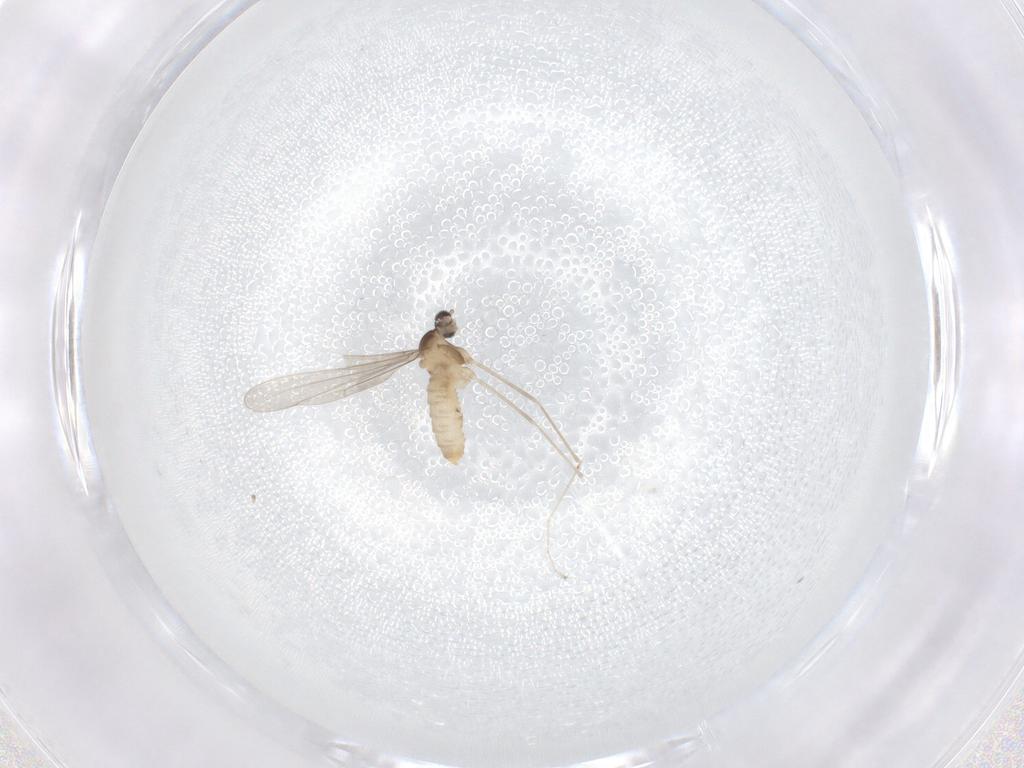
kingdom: Animalia
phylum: Arthropoda
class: Insecta
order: Diptera
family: Cecidomyiidae
